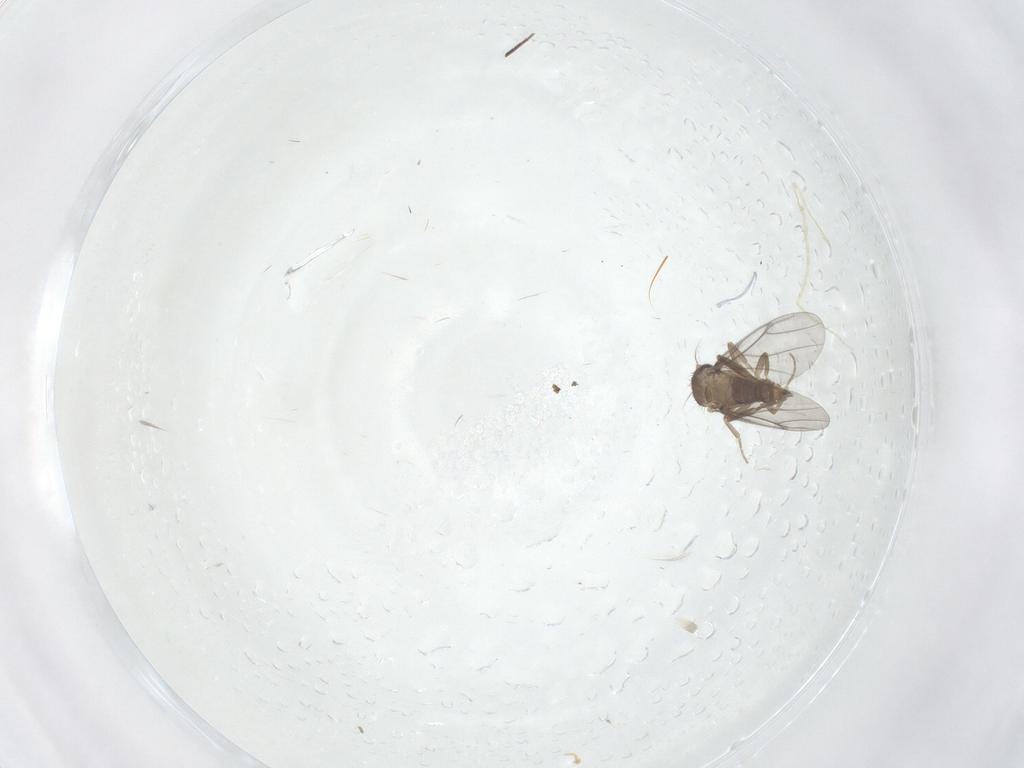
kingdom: Animalia
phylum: Arthropoda
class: Insecta
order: Diptera
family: Phoridae
